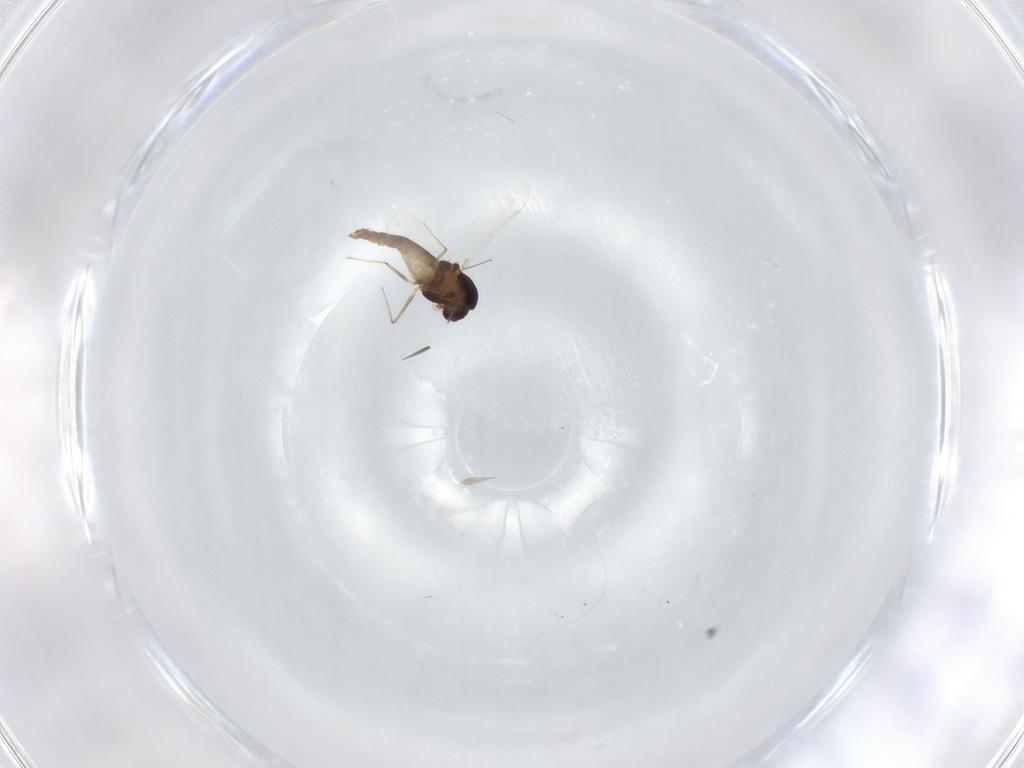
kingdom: Animalia
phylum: Arthropoda
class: Insecta
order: Diptera
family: Chironomidae
